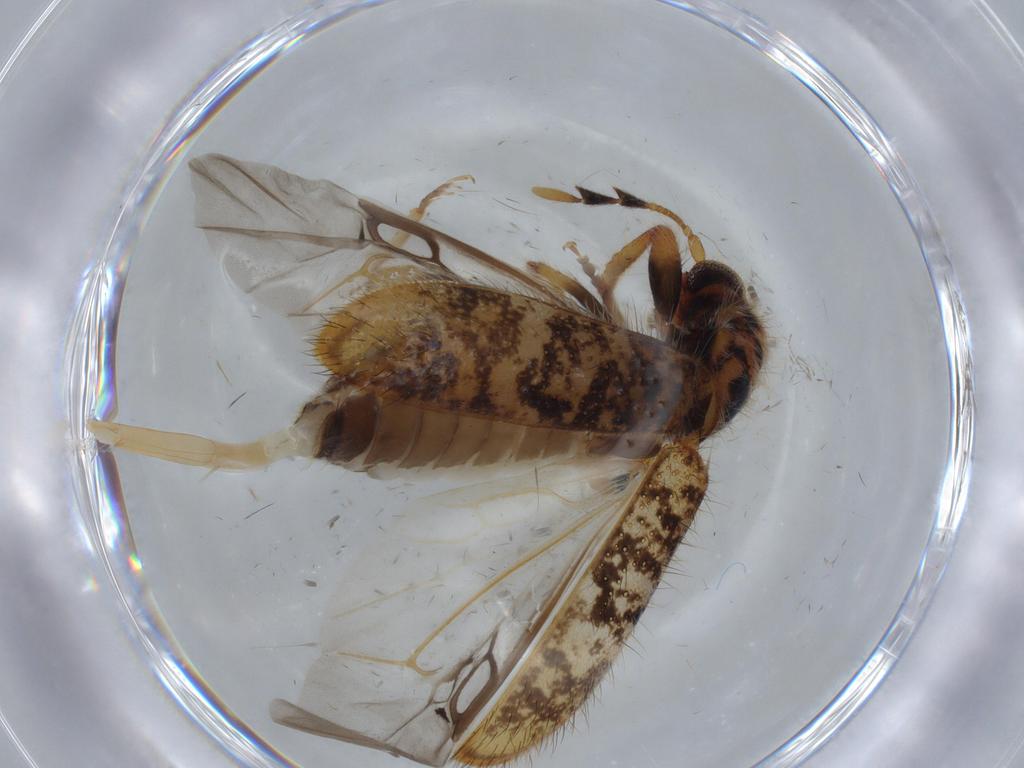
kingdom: Animalia
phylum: Arthropoda
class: Insecta
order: Coleoptera
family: Cleridae
